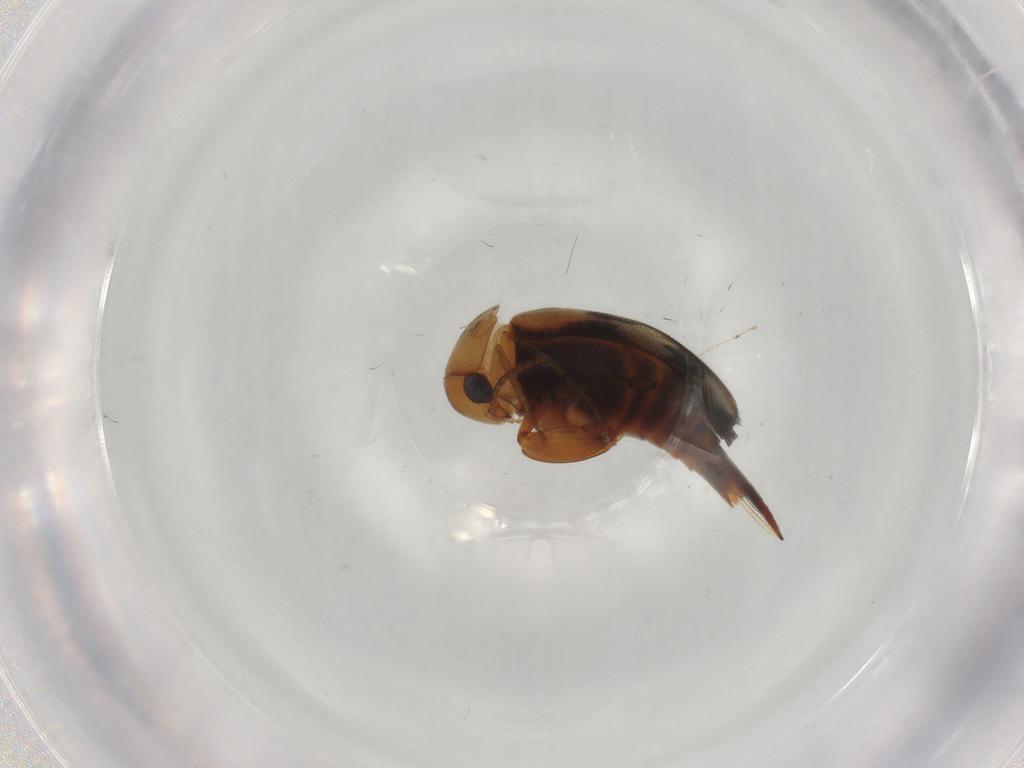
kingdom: Animalia
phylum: Arthropoda
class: Insecta
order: Coleoptera
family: Mordellidae
